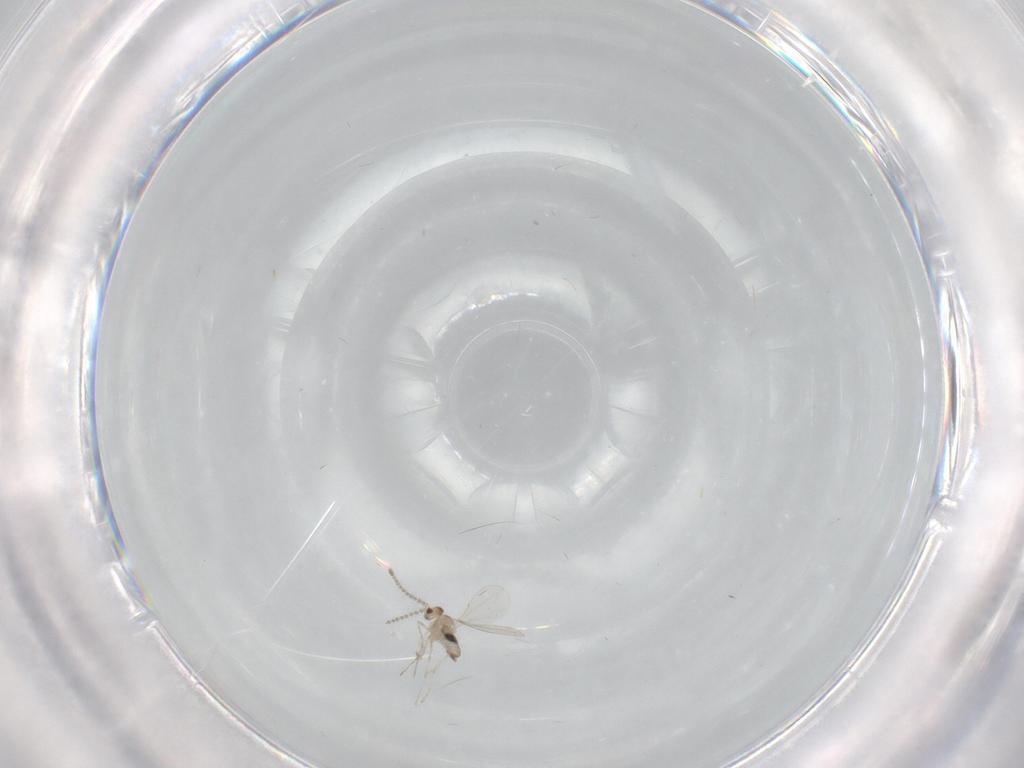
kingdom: Animalia
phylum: Arthropoda
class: Insecta
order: Diptera
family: Cecidomyiidae
